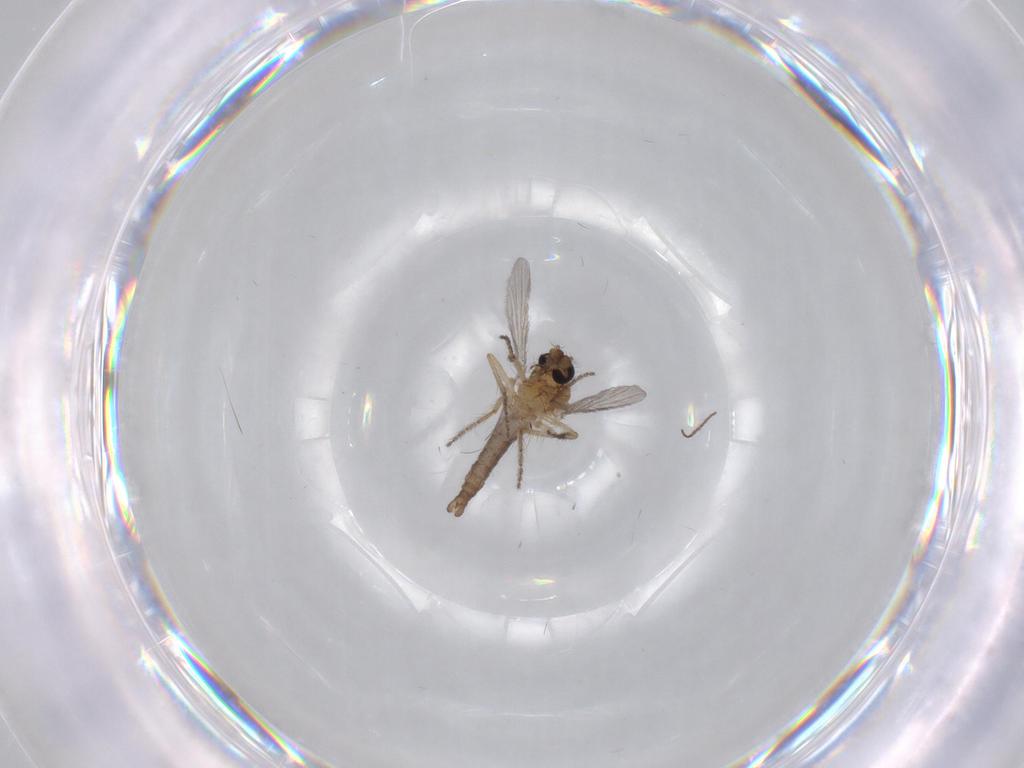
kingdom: Animalia
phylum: Arthropoda
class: Insecta
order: Diptera
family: Ceratopogonidae
